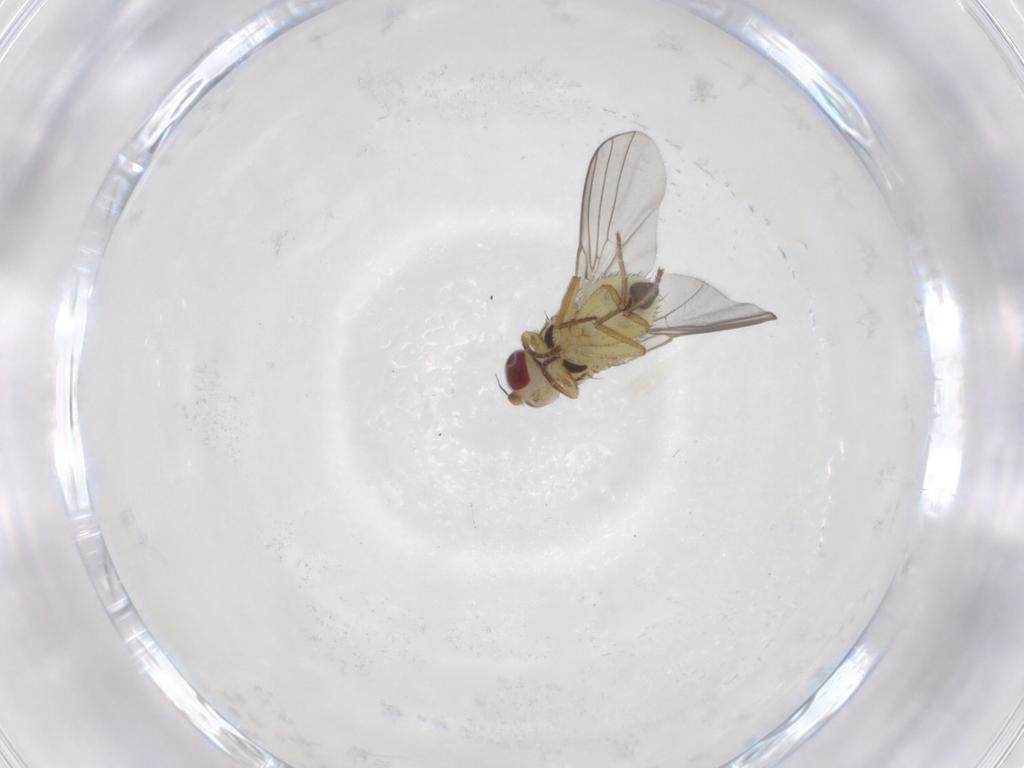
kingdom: Animalia
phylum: Arthropoda
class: Insecta
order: Diptera
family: Agromyzidae
